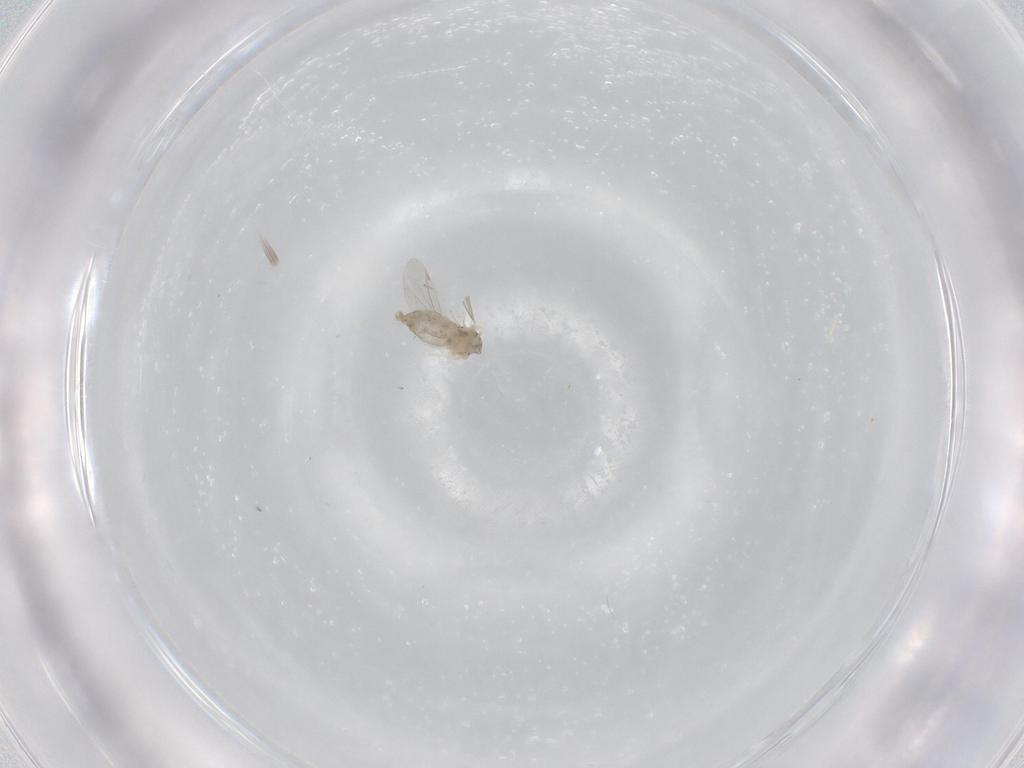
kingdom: Animalia
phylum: Arthropoda
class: Insecta
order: Diptera
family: Cecidomyiidae
